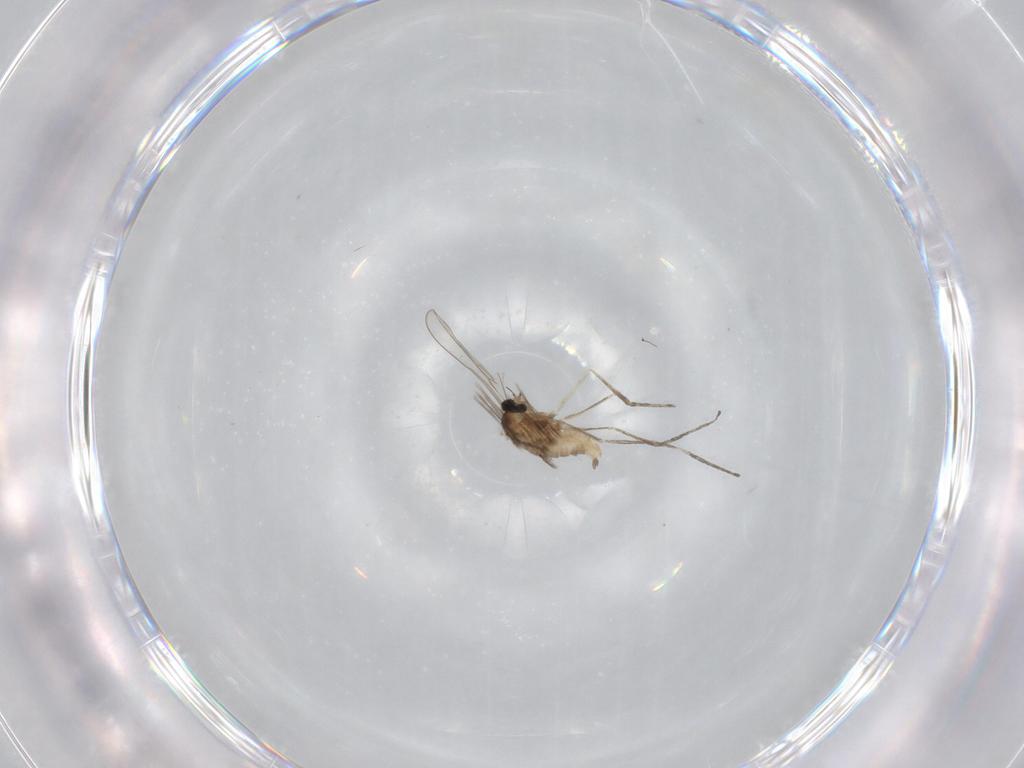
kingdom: Animalia
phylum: Arthropoda
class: Insecta
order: Diptera
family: Cecidomyiidae
